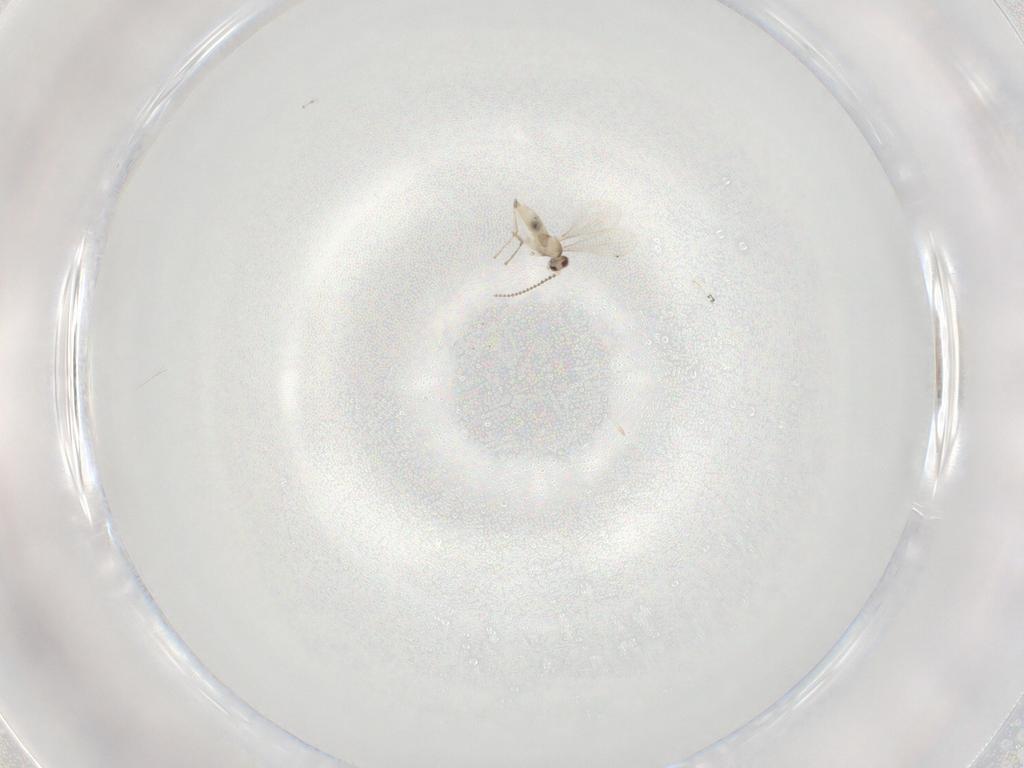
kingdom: Animalia
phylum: Arthropoda
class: Insecta
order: Diptera
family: Cecidomyiidae
